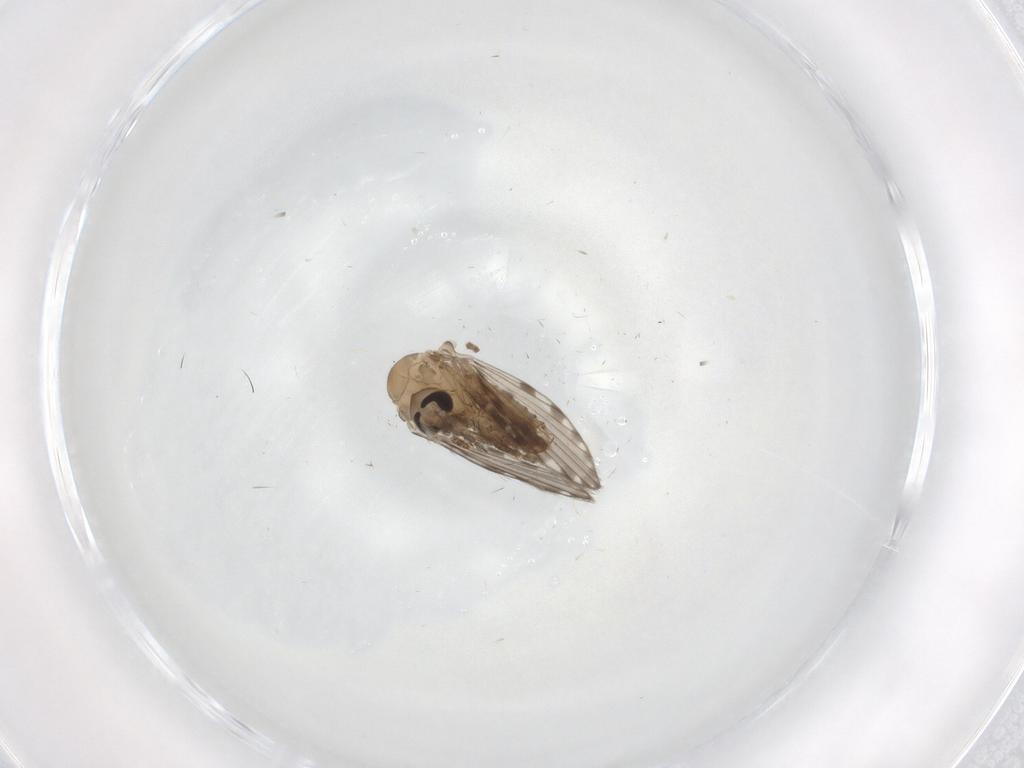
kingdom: Animalia
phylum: Arthropoda
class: Insecta
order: Diptera
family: Psychodidae
